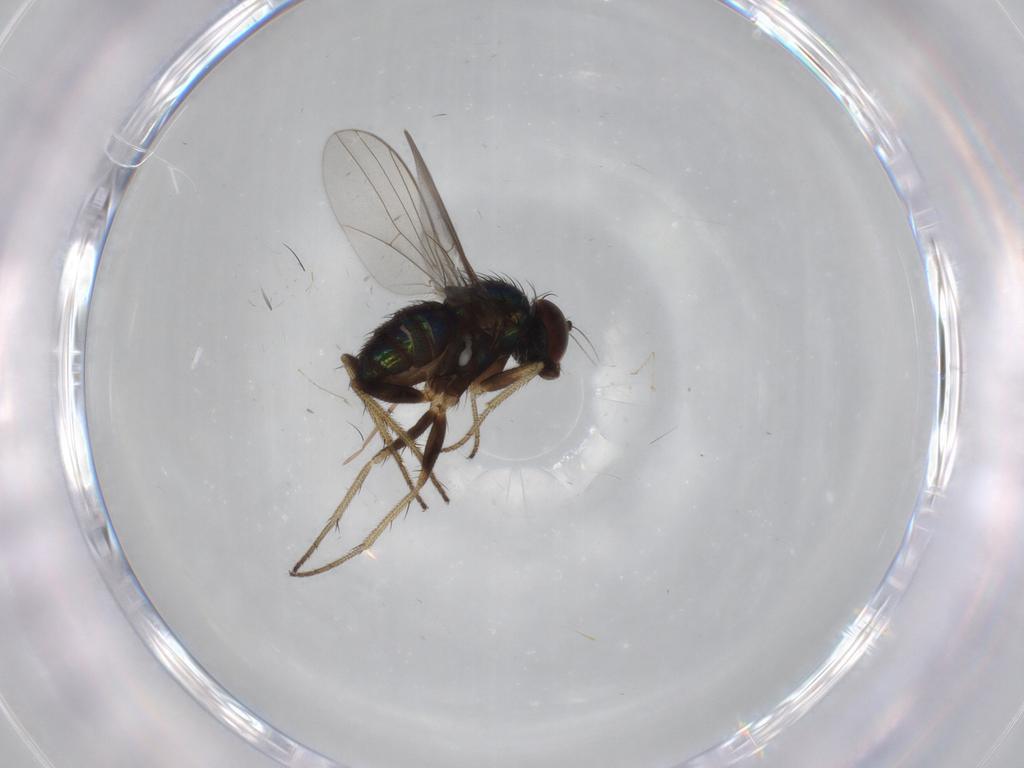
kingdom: Animalia
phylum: Arthropoda
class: Insecta
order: Diptera
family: Dolichopodidae
